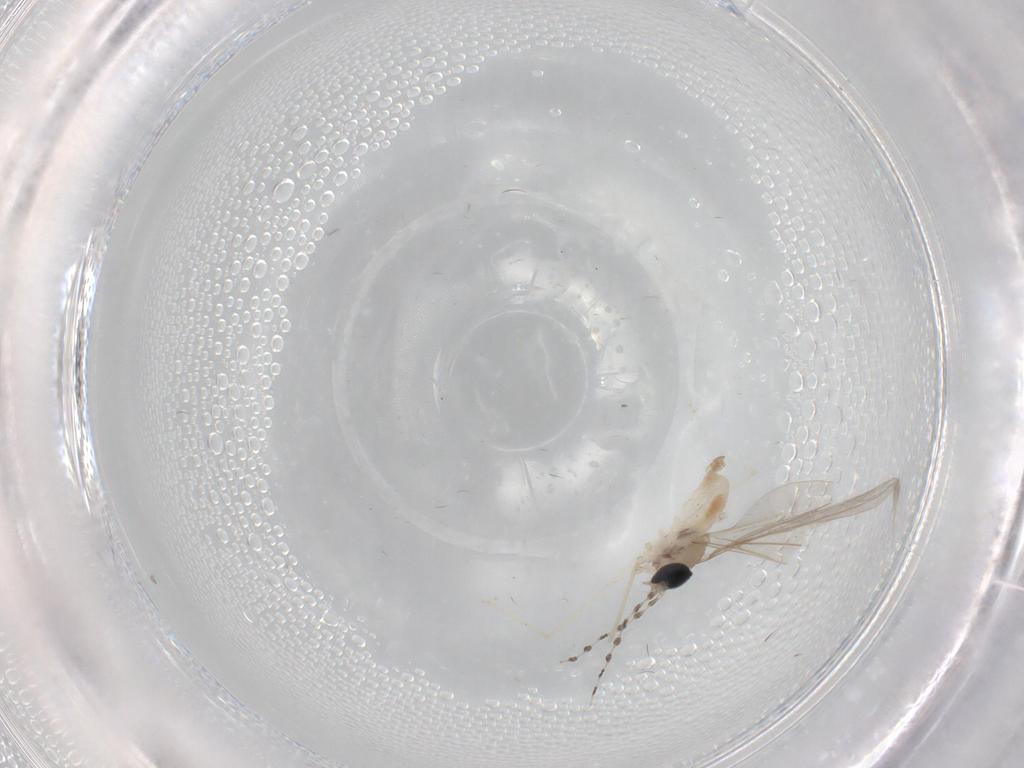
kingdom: Animalia
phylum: Arthropoda
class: Insecta
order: Diptera
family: Cecidomyiidae
